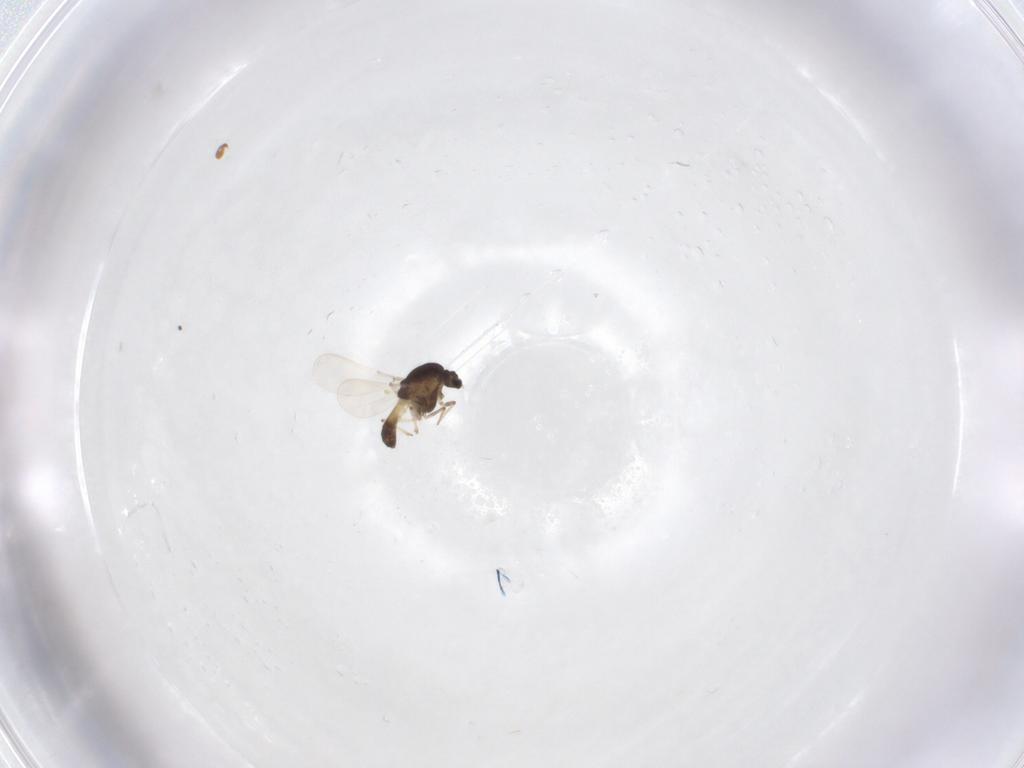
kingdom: Animalia
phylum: Arthropoda
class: Insecta
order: Diptera
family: Chironomidae
